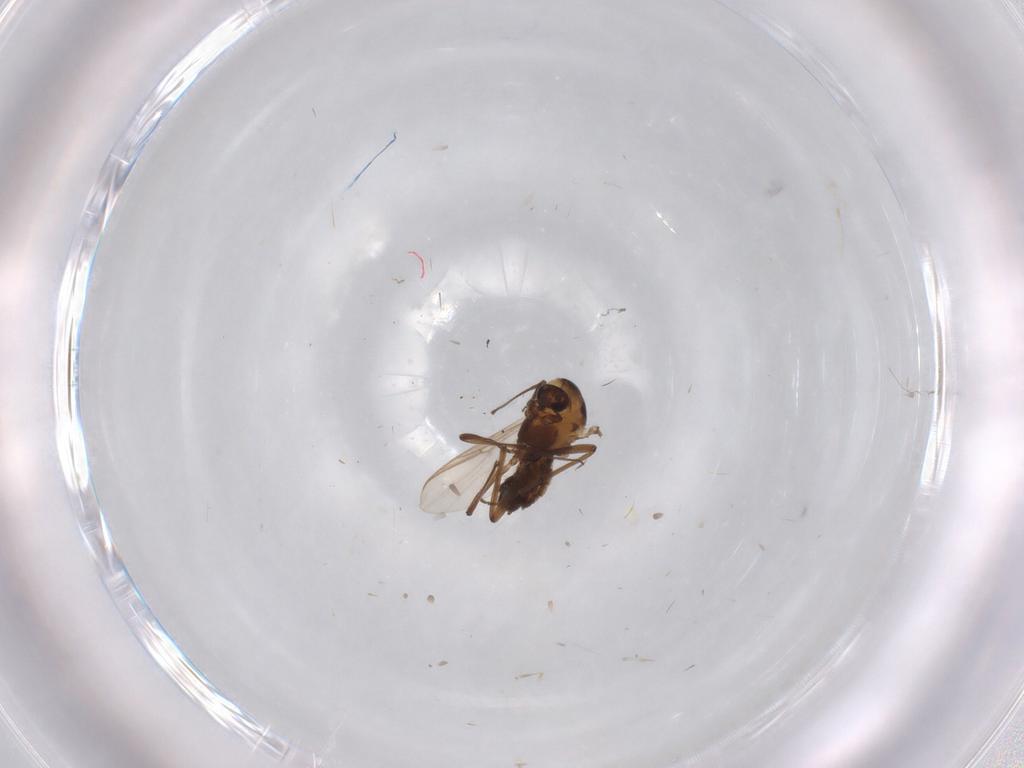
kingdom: Animalia
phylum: Arthropoda
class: Insecta
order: Diptera
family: Chironomidae
